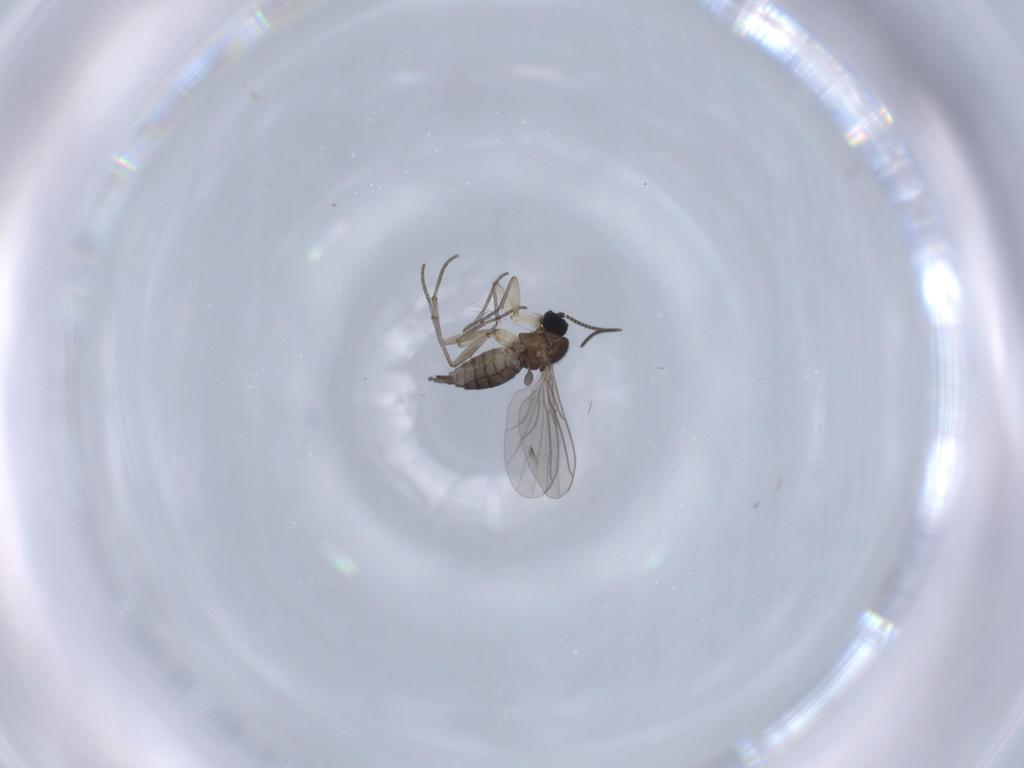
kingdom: Animalia
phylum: Arthropoda
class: Insecta
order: Diptera
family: Sciaridae
